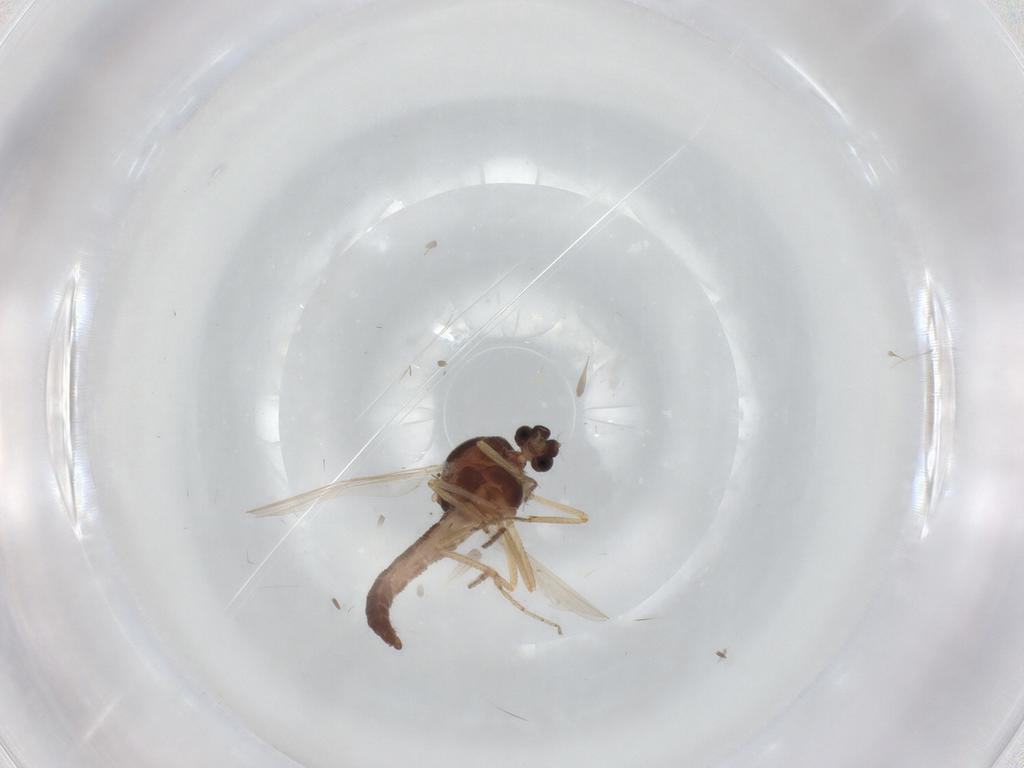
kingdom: Animalia
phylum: Arthropoda
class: Insecta
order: Diptera
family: Ceratopogonidae
